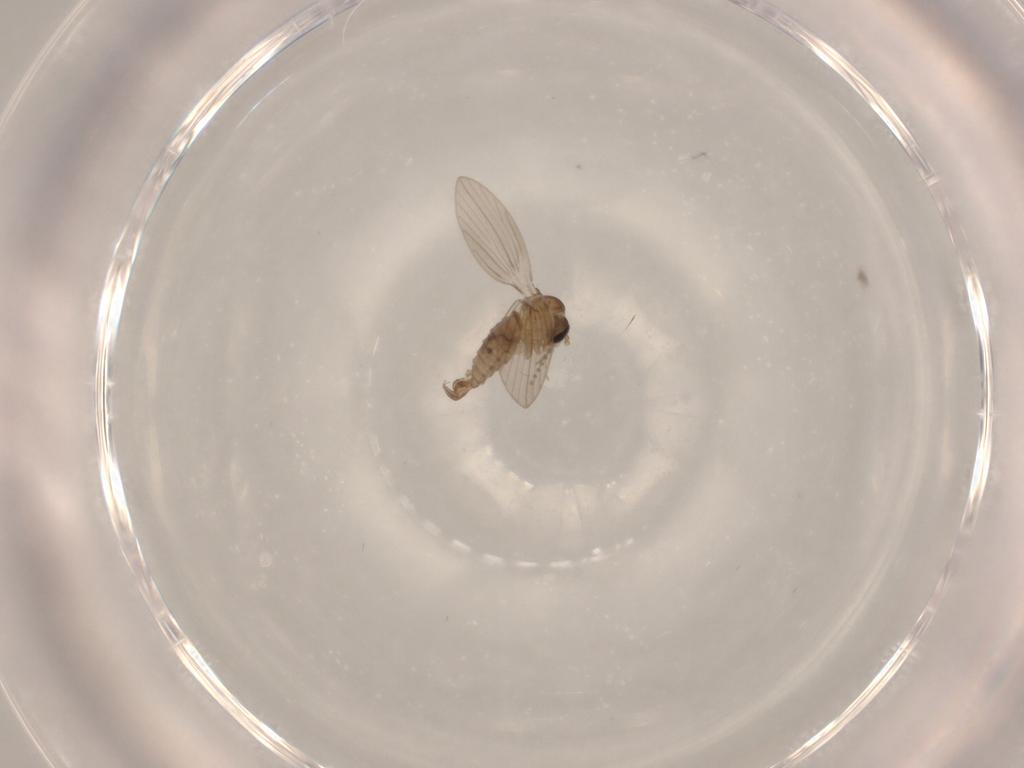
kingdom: Animalia
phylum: Arthropoda
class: Insecta
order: Diptera
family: Psychodidae
